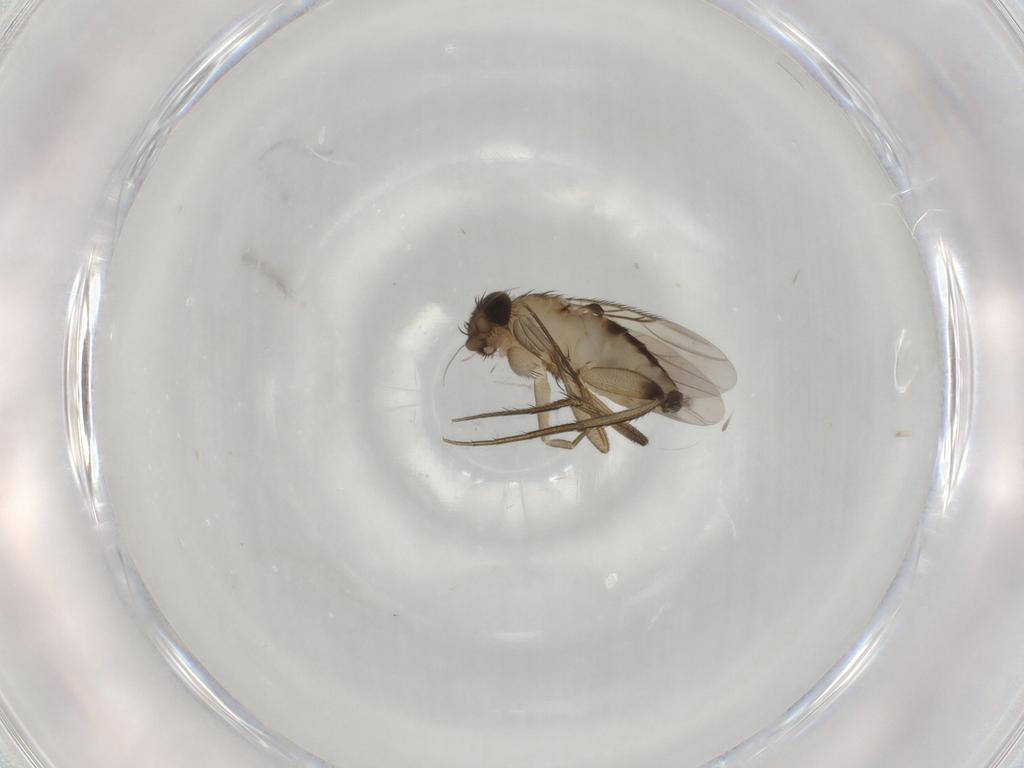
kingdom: Animalia
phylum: Arthropoda
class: Insecta
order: Diptera
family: Phoridae
